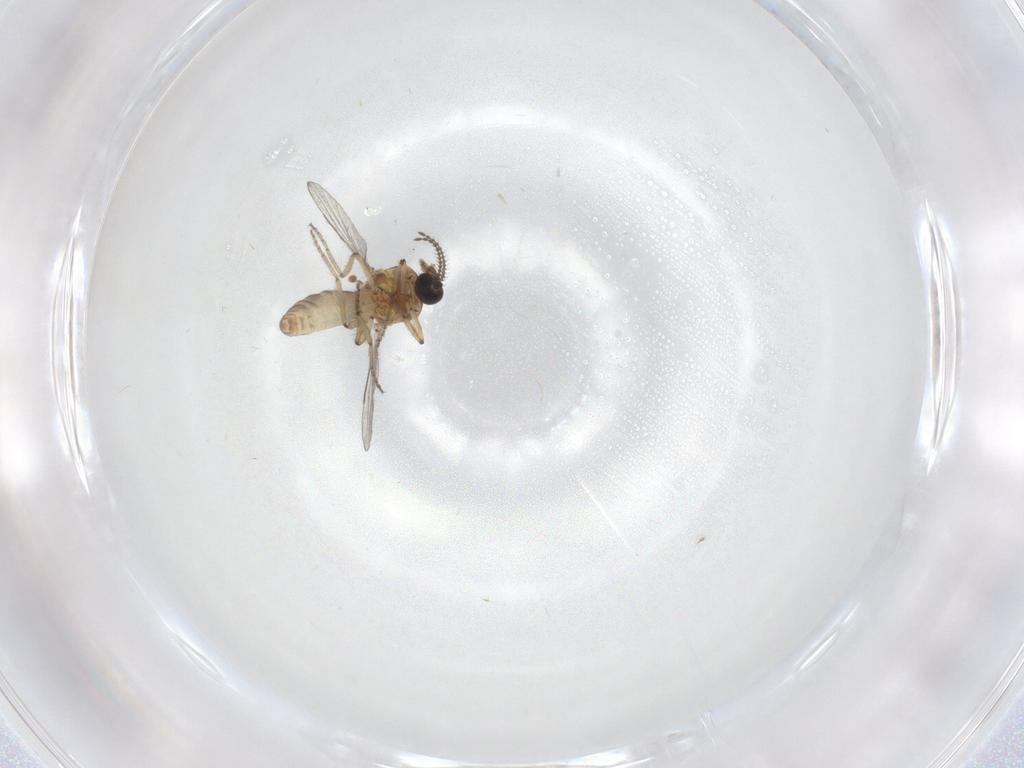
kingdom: Animalia
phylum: Arthropoda
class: Insecta
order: Diptera
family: Ceratopogonidae
